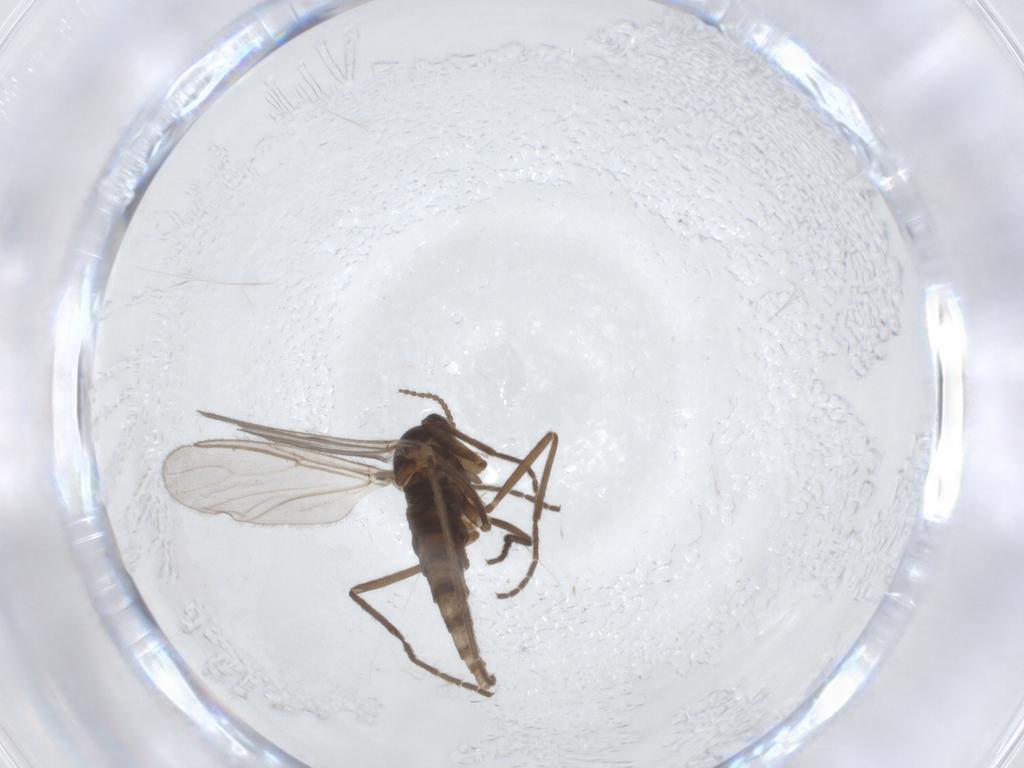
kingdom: Animalia
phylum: Arthropoda
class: Insecta
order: Diptera
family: Cecidomyiidae
